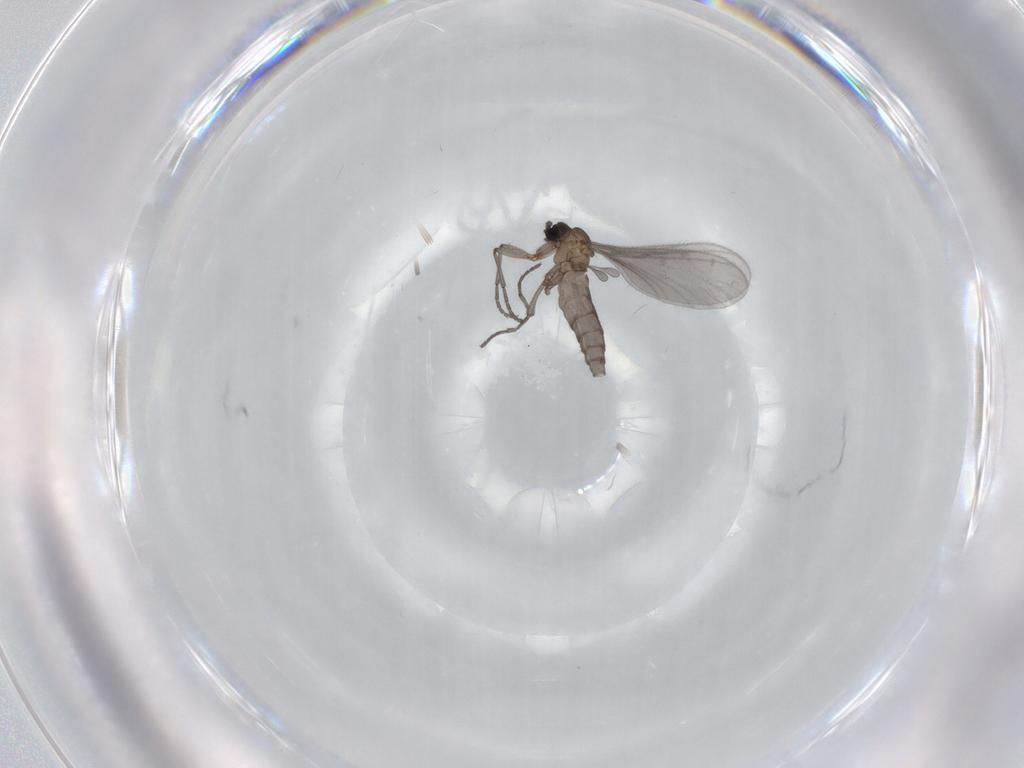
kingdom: Animalia
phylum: Arthropoda
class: Insecta
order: Diptera
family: Sciaridae
